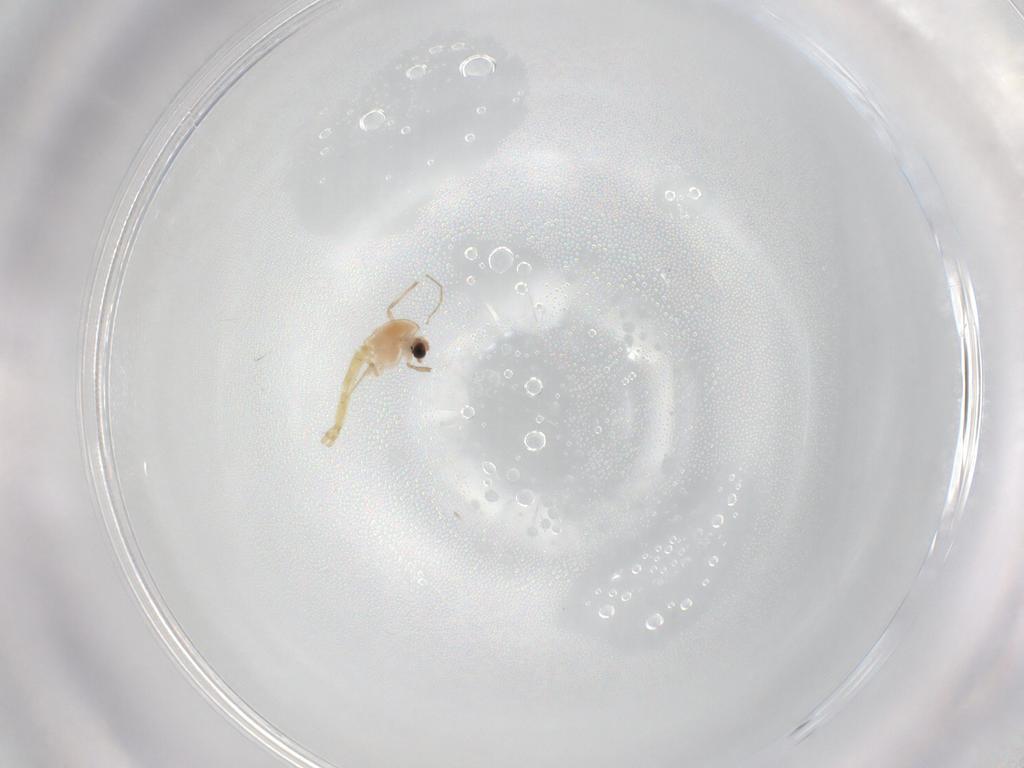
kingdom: Animalia
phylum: Arthropoda
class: Insecta
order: Diptera
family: Chironomidae
